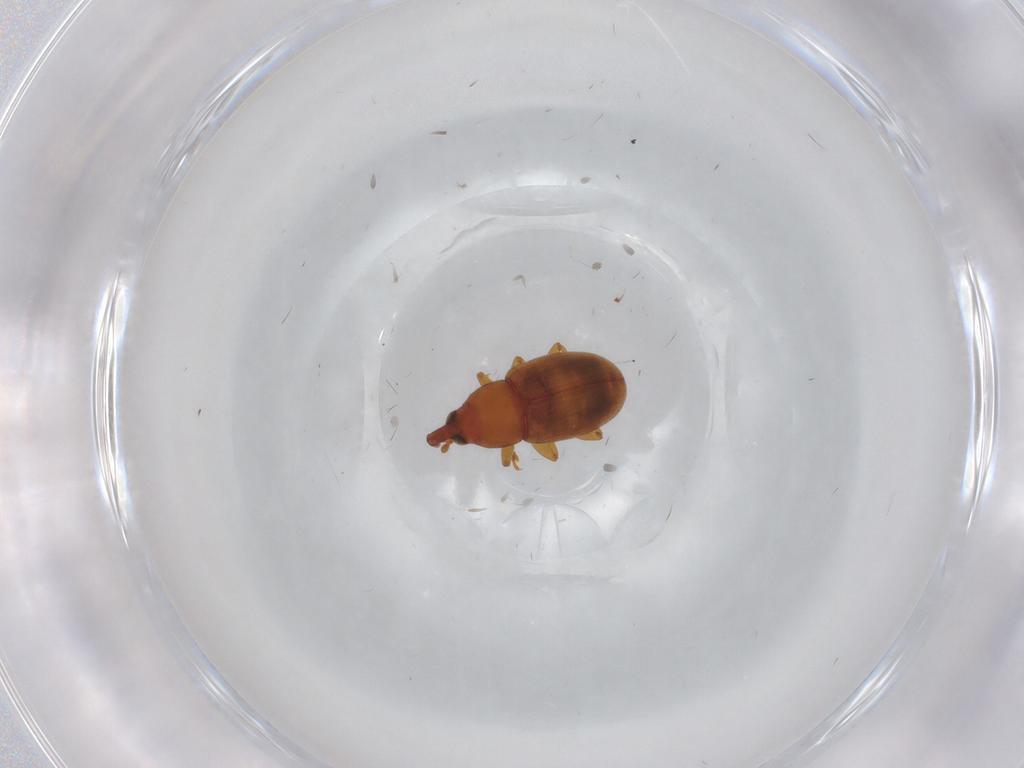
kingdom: Animalia
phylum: Arthropoda
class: Insecta
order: Coleoptera
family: Curculionidae
